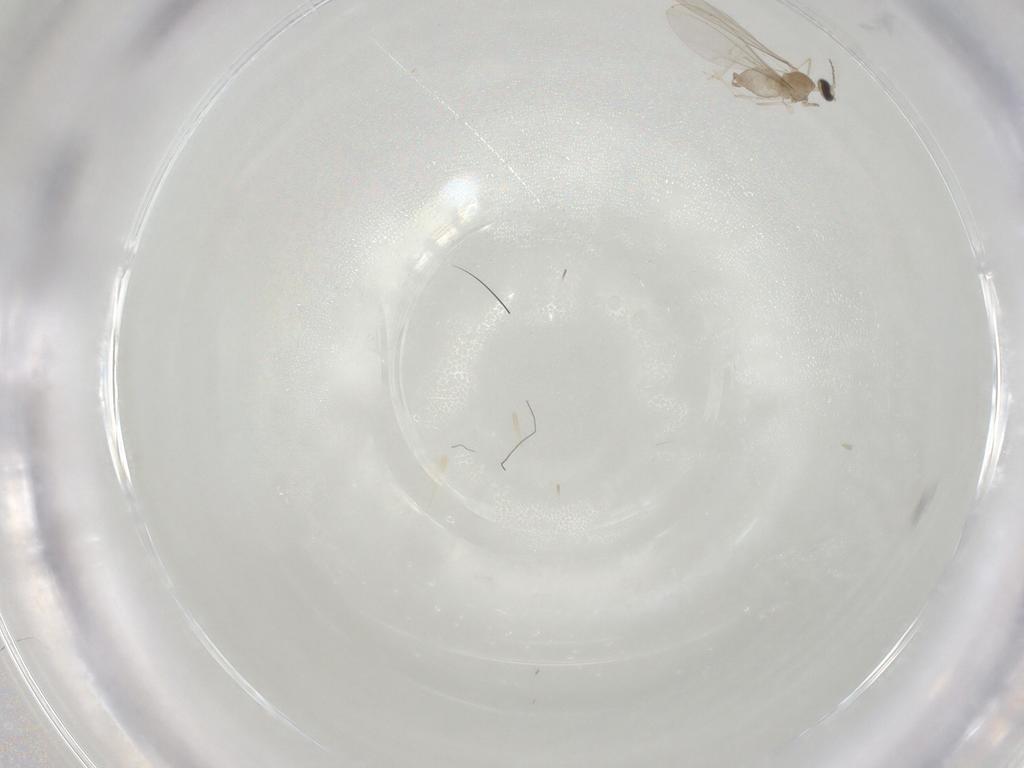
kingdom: Animalia
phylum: Arthropoda
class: Insecta
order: Diptera
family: Cecidomyiidae
